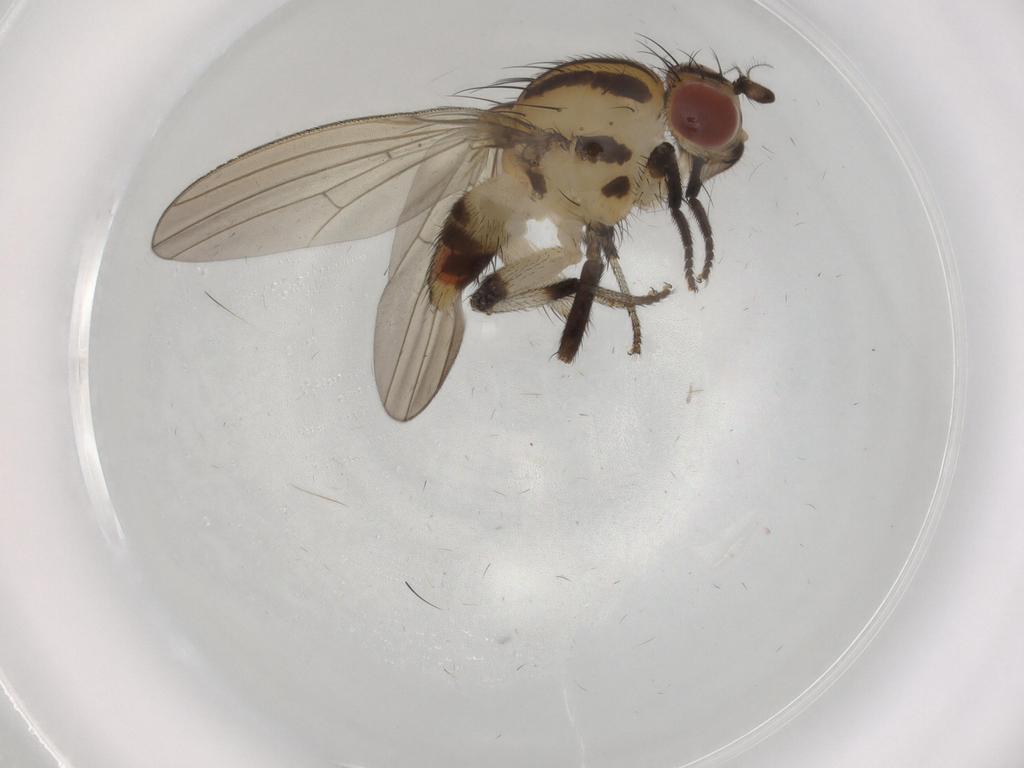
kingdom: Animalia
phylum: Arthropoda
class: Insecta
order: Diptera
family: Lauxaniidae
